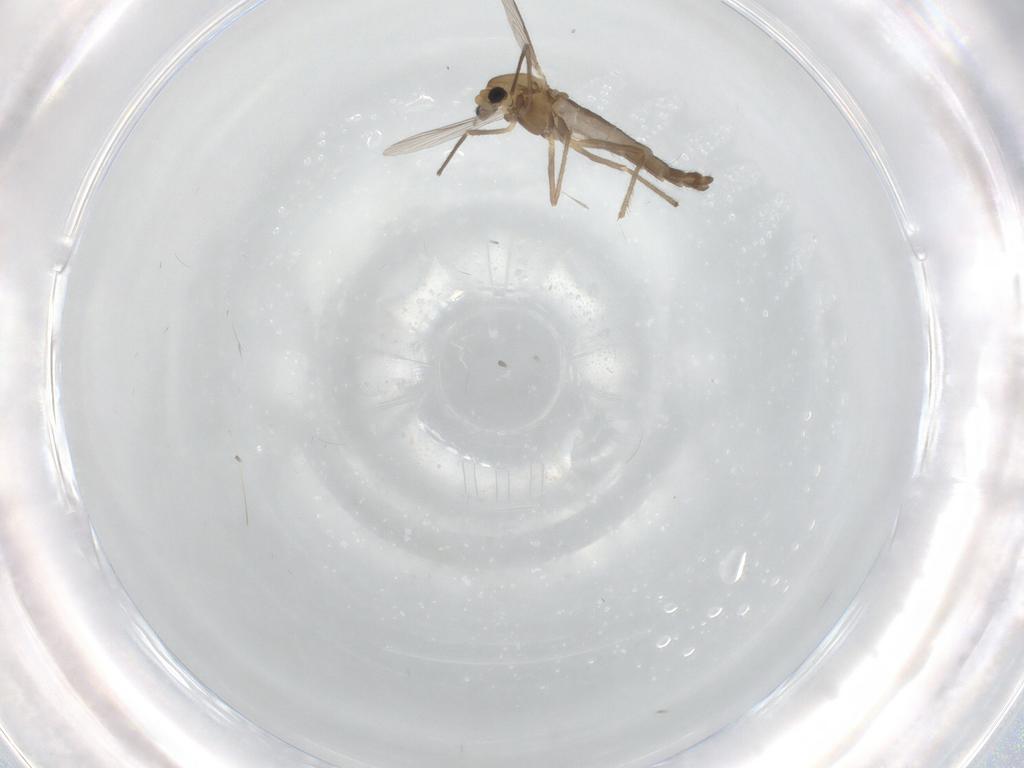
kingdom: Animalia
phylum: Arthropoda
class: Insecta
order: Diptera
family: Chironomidae
